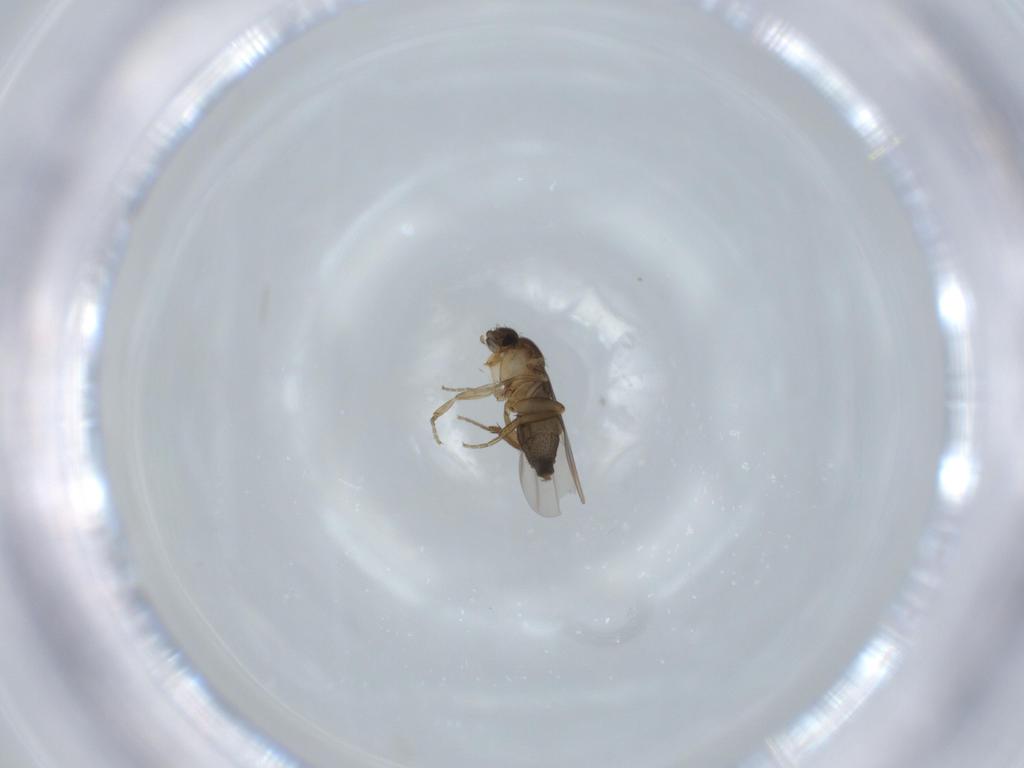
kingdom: Animalia
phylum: Arthropoda
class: Insecta
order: Diptera
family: Phoridae
